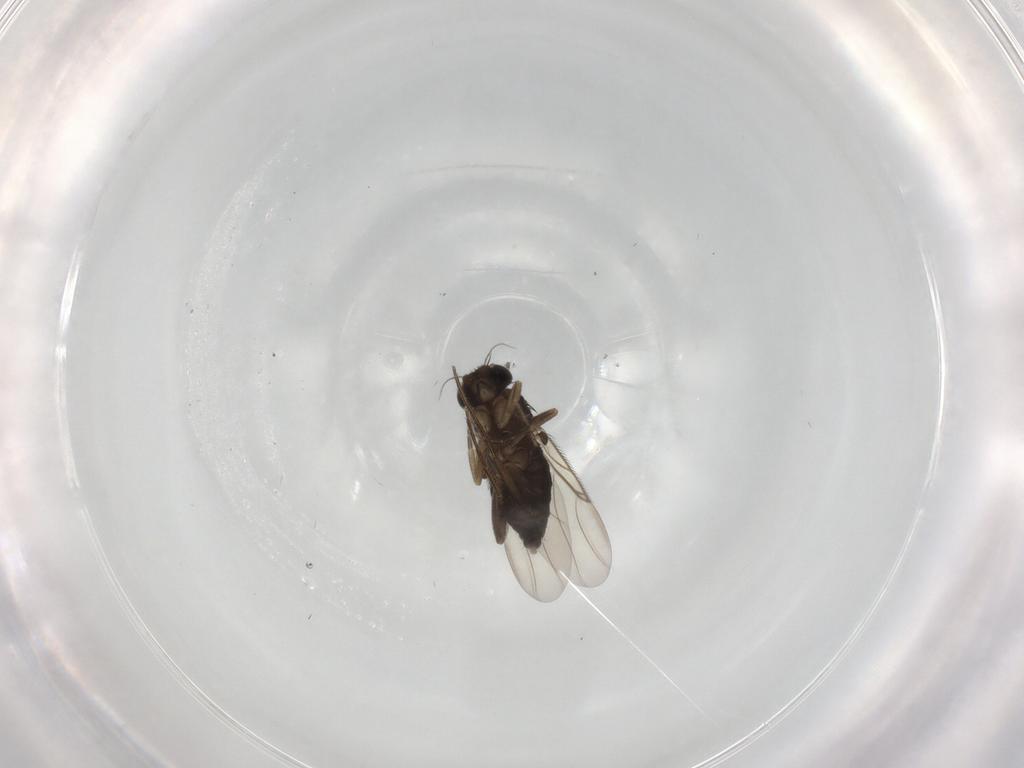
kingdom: Animalia
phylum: Arthropoda
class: Insecta
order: Diptera
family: Phoridae
